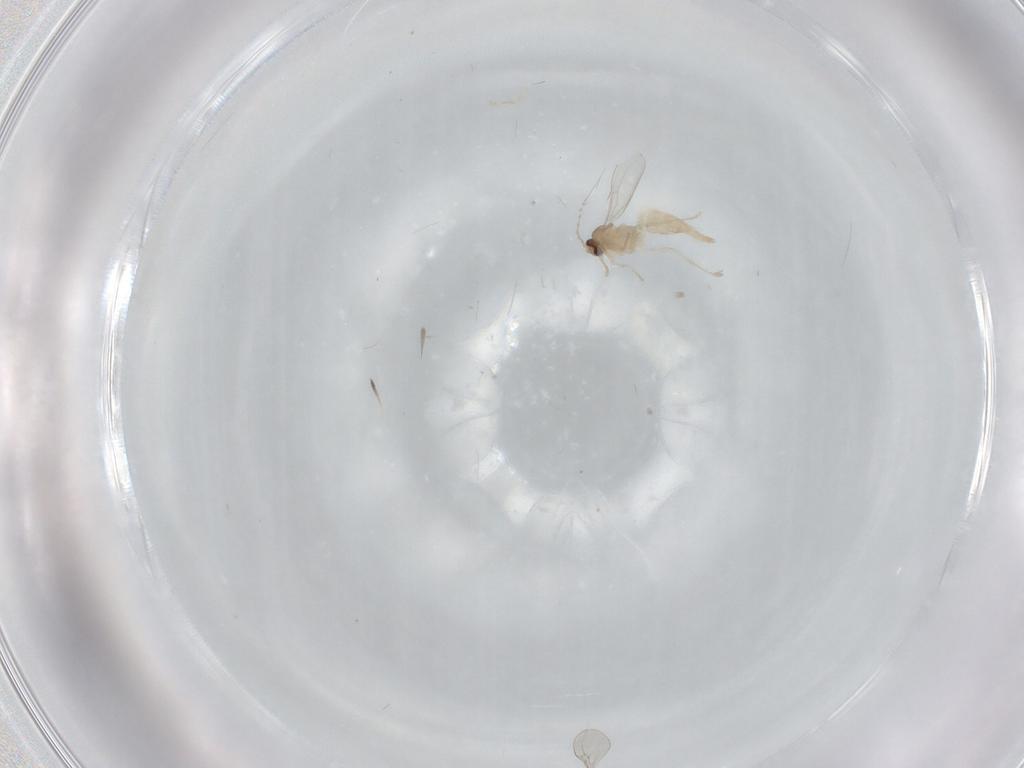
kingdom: Animalia
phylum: Arthropoda
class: Insecta
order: Diptera
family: Cecidomyiidae
